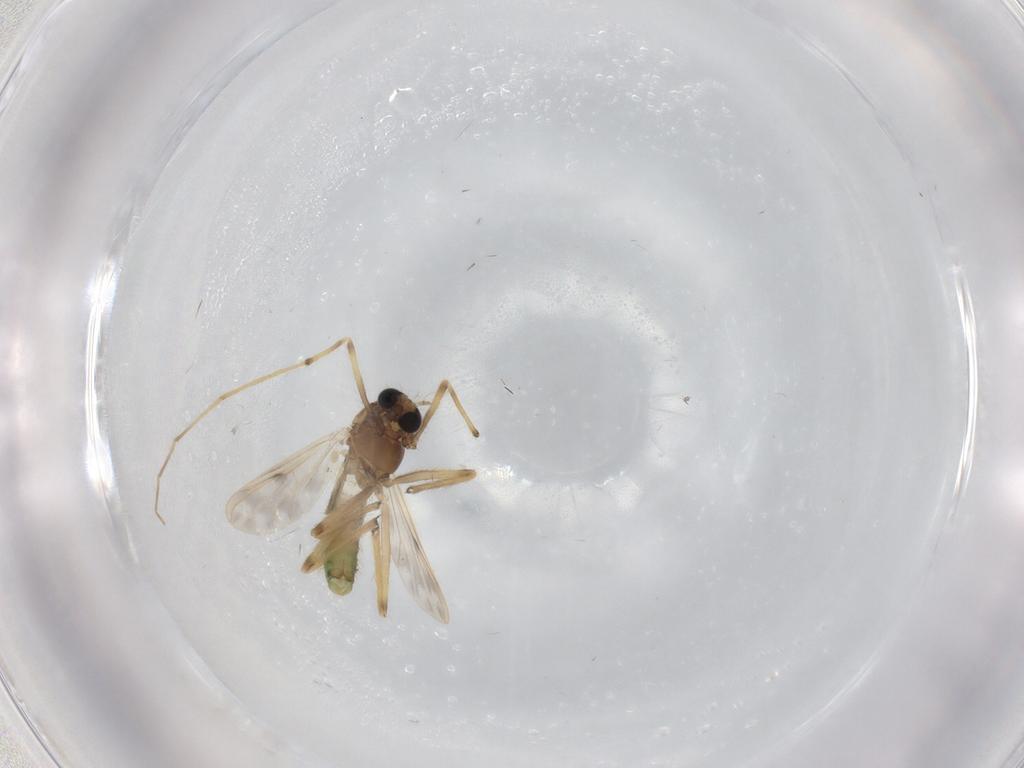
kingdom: Animalia
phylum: Arthropoda
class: Insecta
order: Diptera
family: Chironomidae
